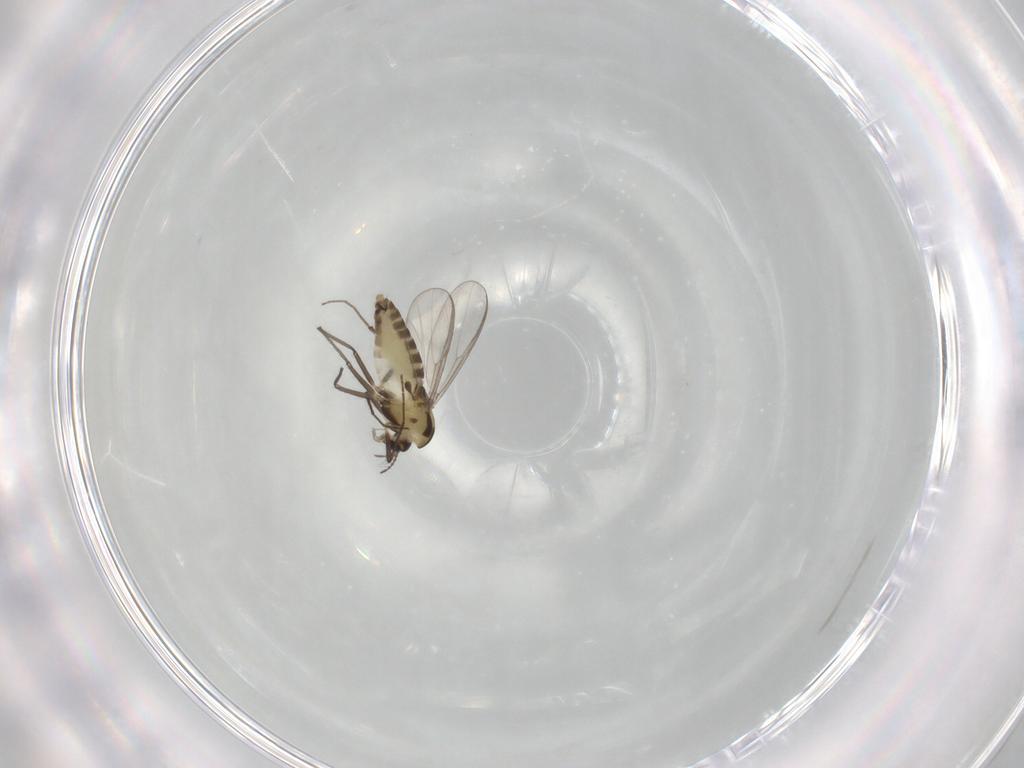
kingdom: Animalia
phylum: Arthropoda
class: Insecta
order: Diptera
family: Chironomidae
